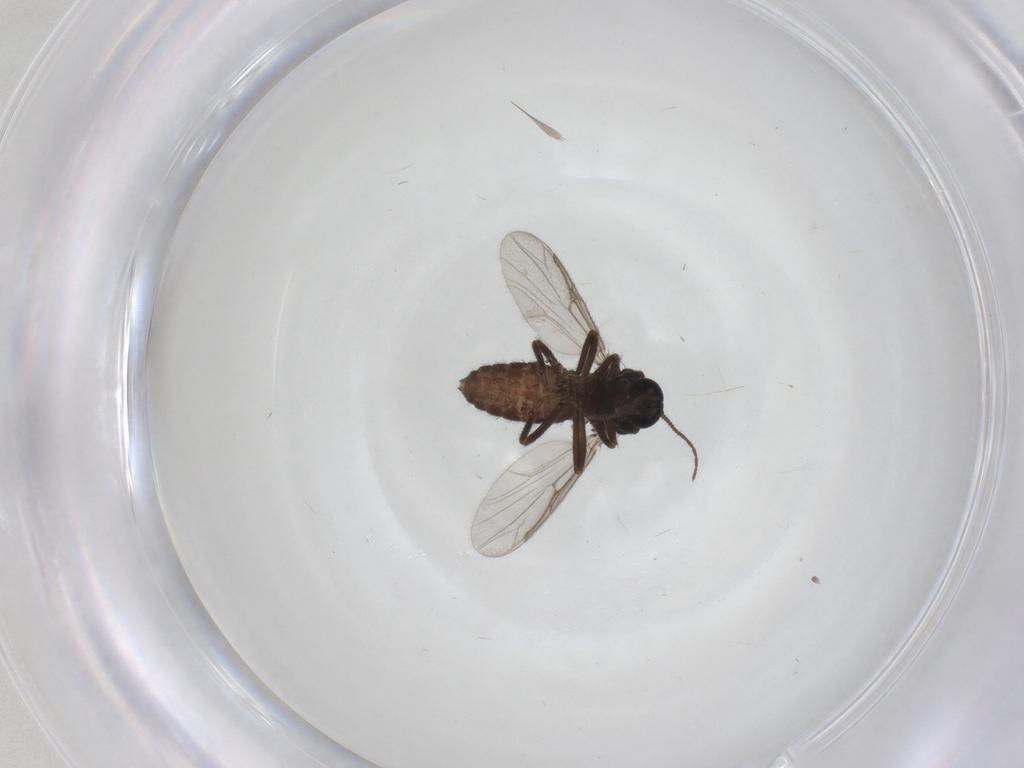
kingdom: Animalia
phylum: Arthropoda
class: Insecta
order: Diptera
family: Ceratopogonidae
